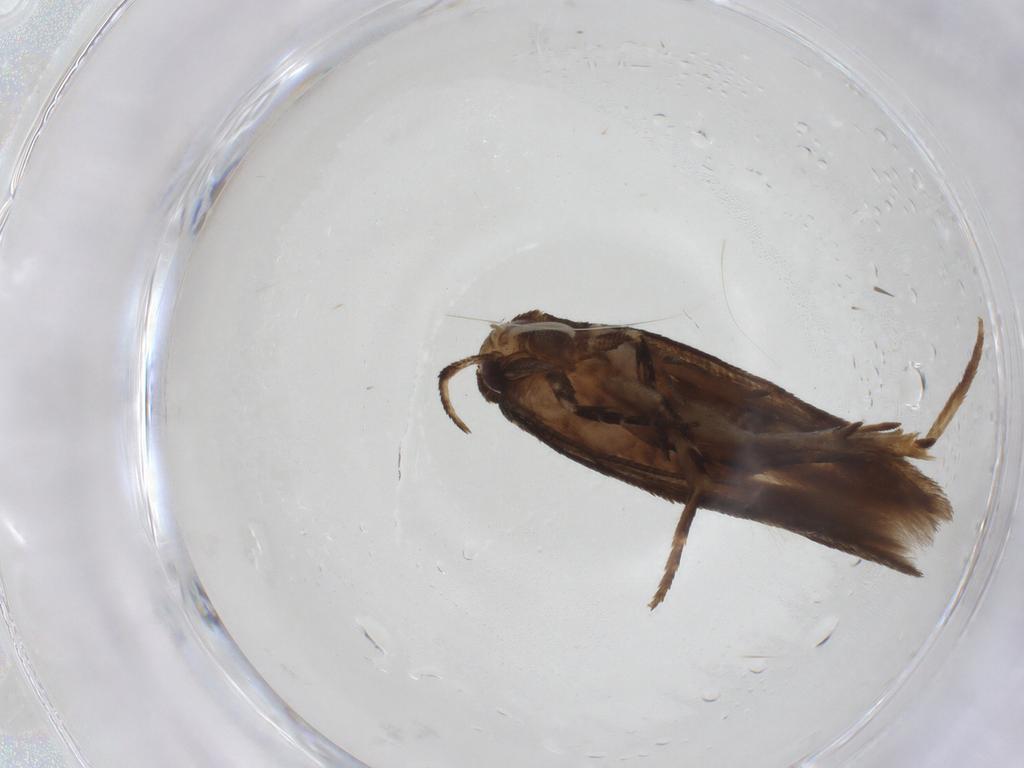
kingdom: Animalia
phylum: Arthropoda
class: Insecta
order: Lepidoptera
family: Cosmopterigidae
